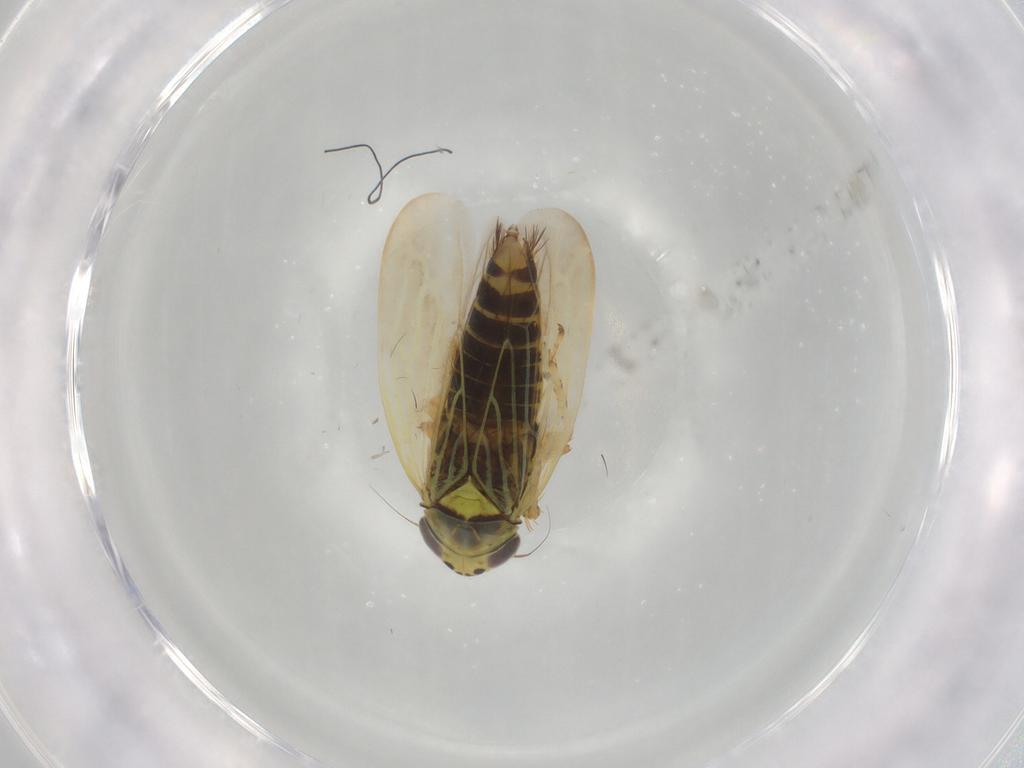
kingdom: Animalia
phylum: Arthropoda
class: Insecta
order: Hemiptera
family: Cicadellidae
